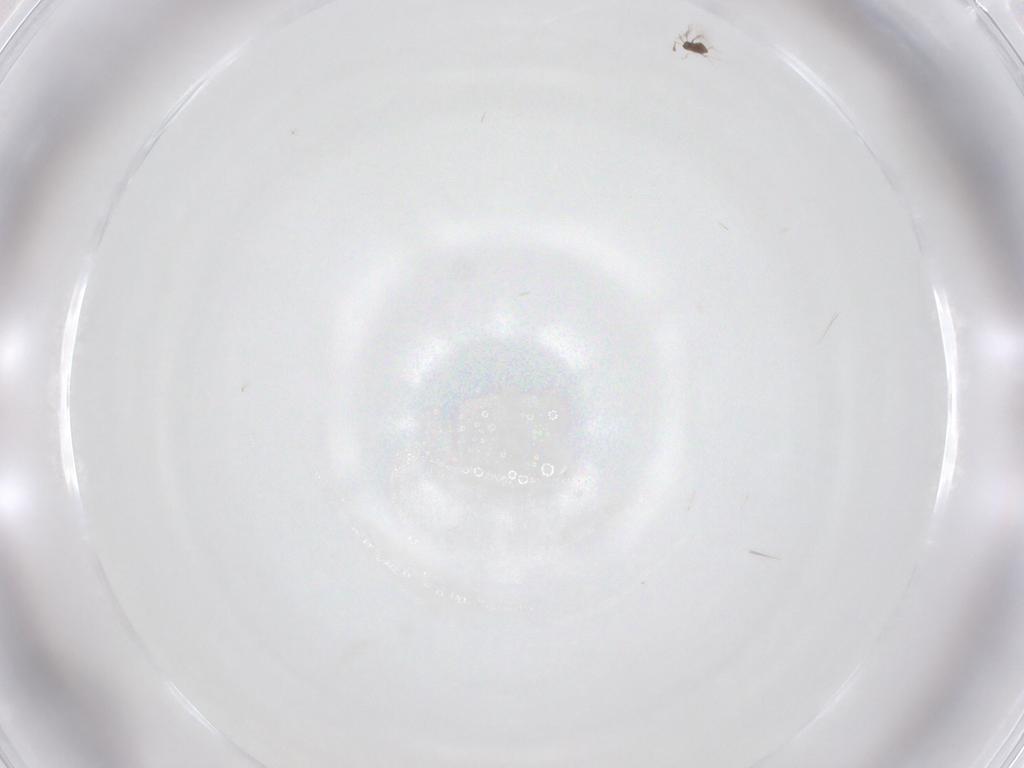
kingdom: Animalia
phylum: Arthropoda
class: Insecta
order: Hymenoptera
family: Mymaridae
